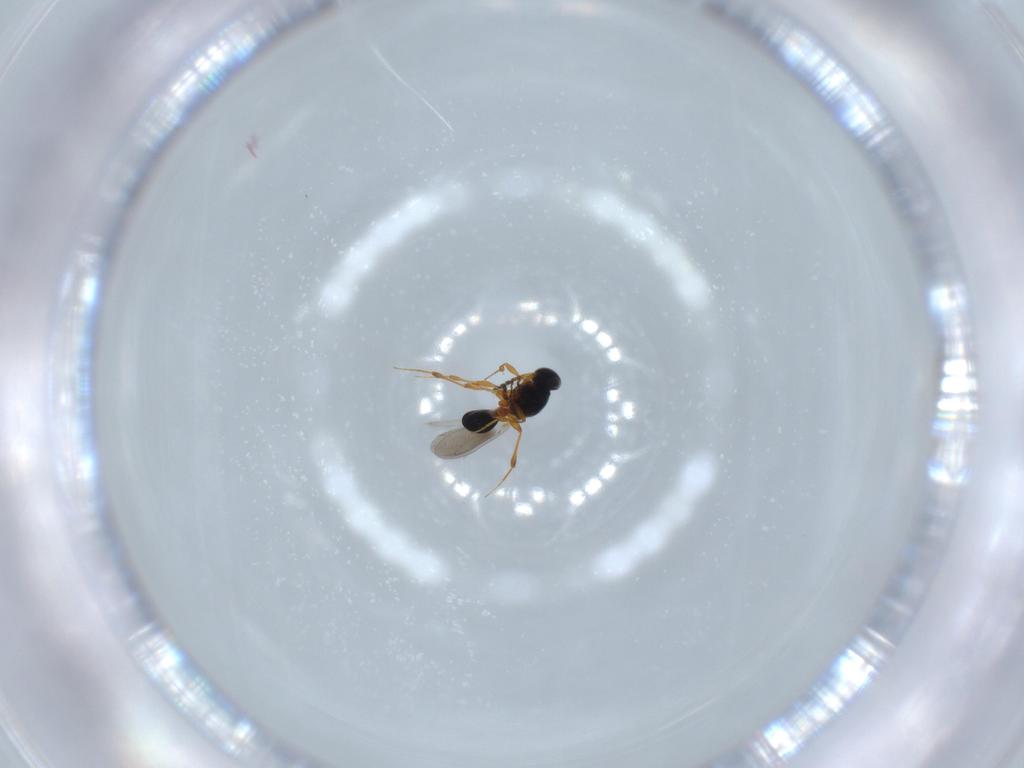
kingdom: Animalia
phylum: Arthropoda
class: Insecta
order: Hymenoptera
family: Platygastridae
